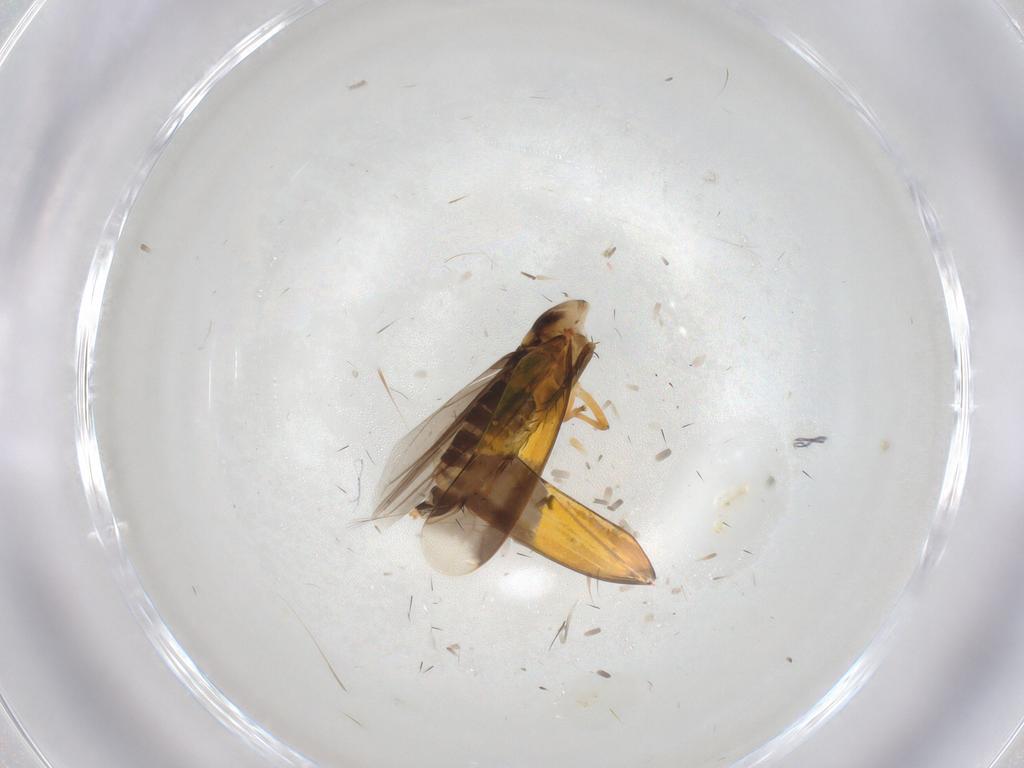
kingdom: Animalia
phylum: Arthropoda
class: Insecta
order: Hemiptera
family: Cicadellidae
